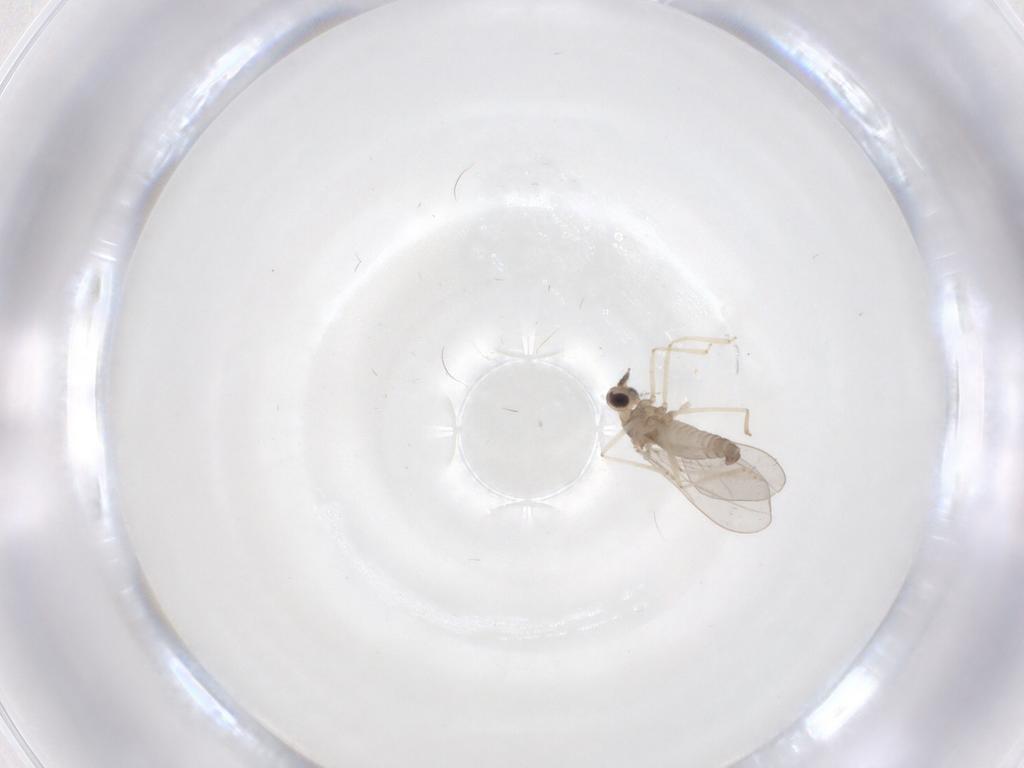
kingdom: Animalia
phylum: Arthropoda
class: Insecta
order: Diptera
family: Cecidomyiidae
